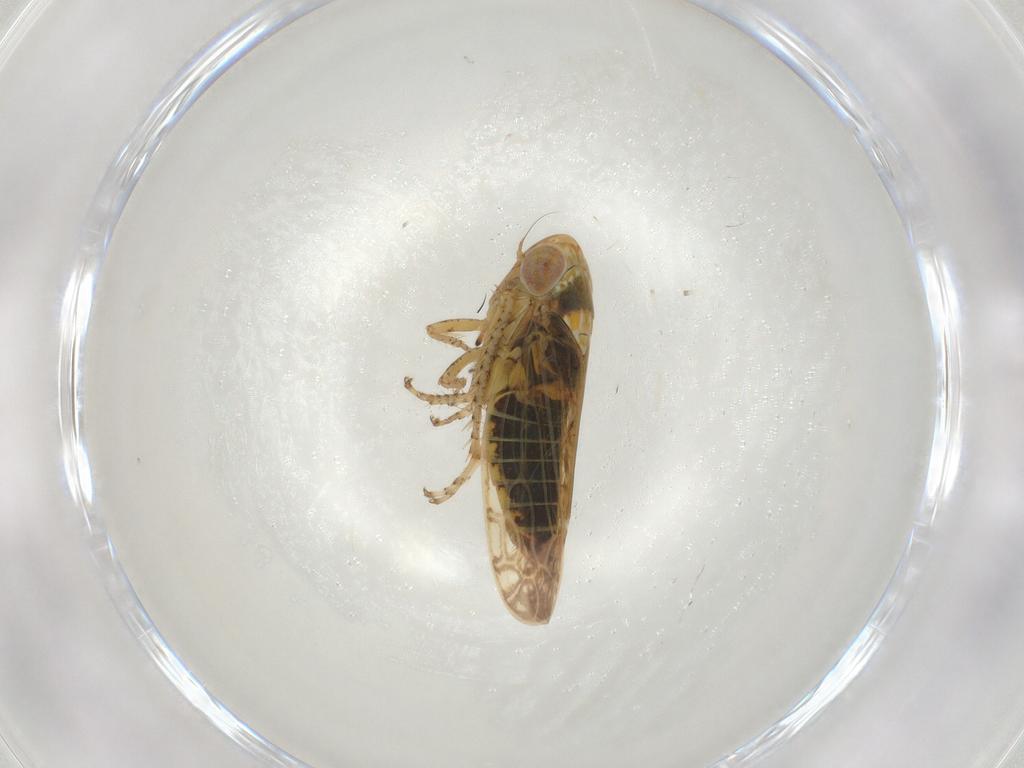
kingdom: Animalia
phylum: Arthropoda
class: Insecta
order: Hemiptera
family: Cicadellidae
